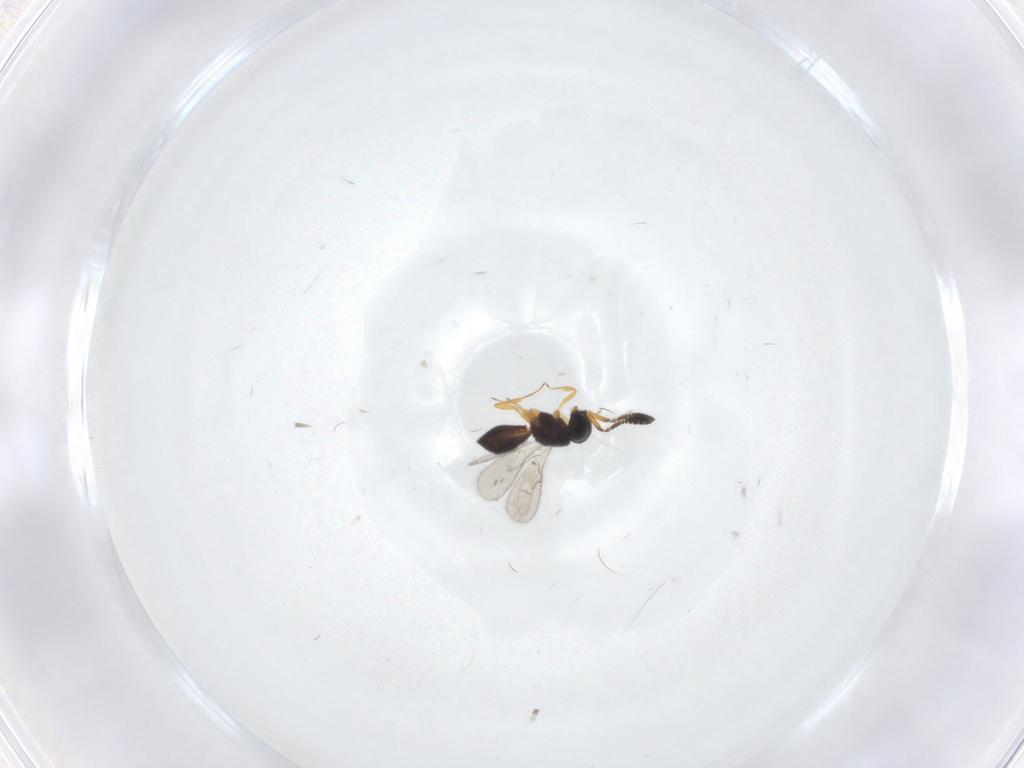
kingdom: Animalia
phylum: Arthropoda
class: Insecta
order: Hymenoptera
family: Scelionidae
